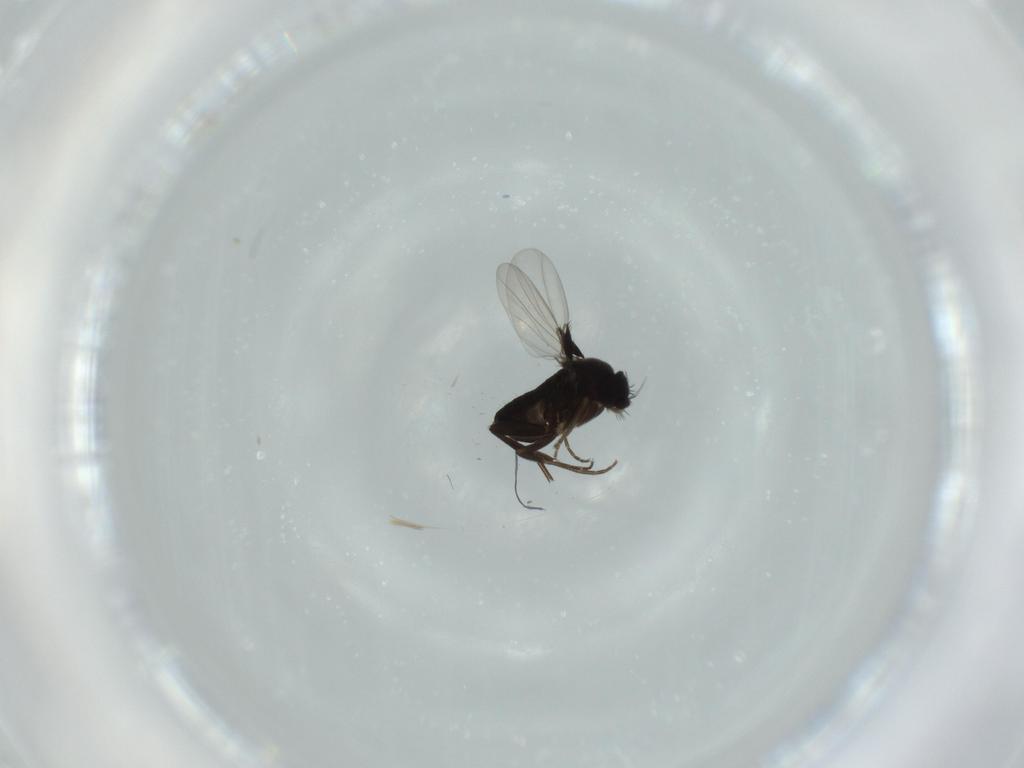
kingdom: Animalia
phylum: Arthropoda
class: Insecta
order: Diptera
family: Phoridae
